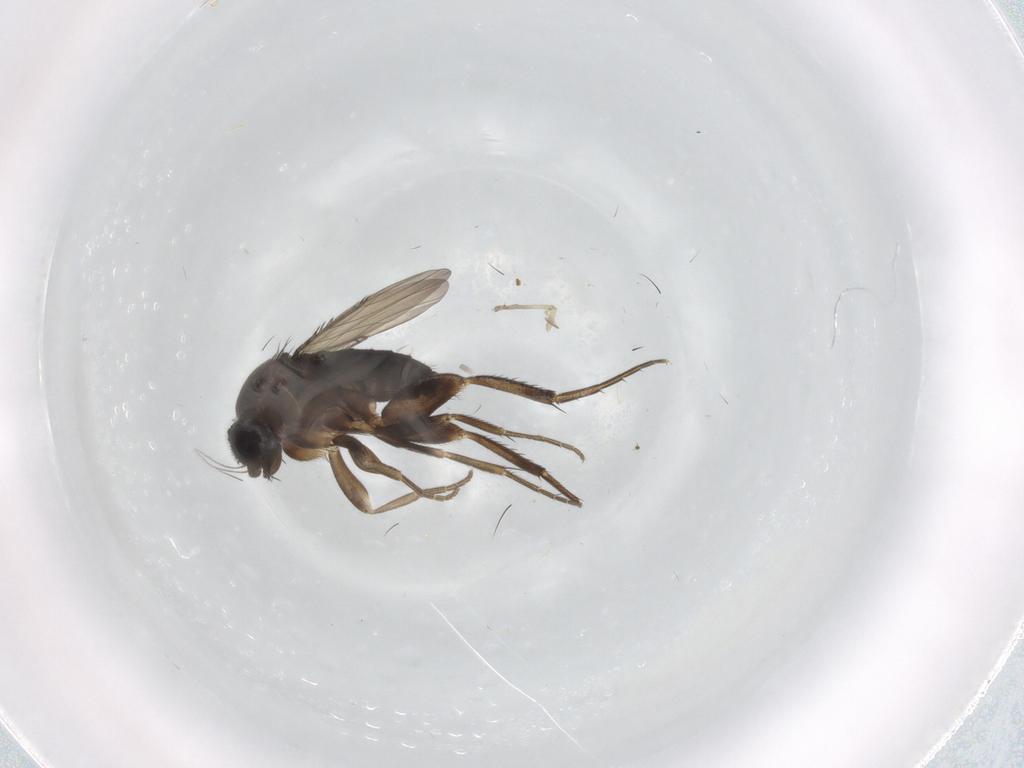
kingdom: Animalia
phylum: Arthropoda
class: Insecta
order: Diptera
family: Phoridae
